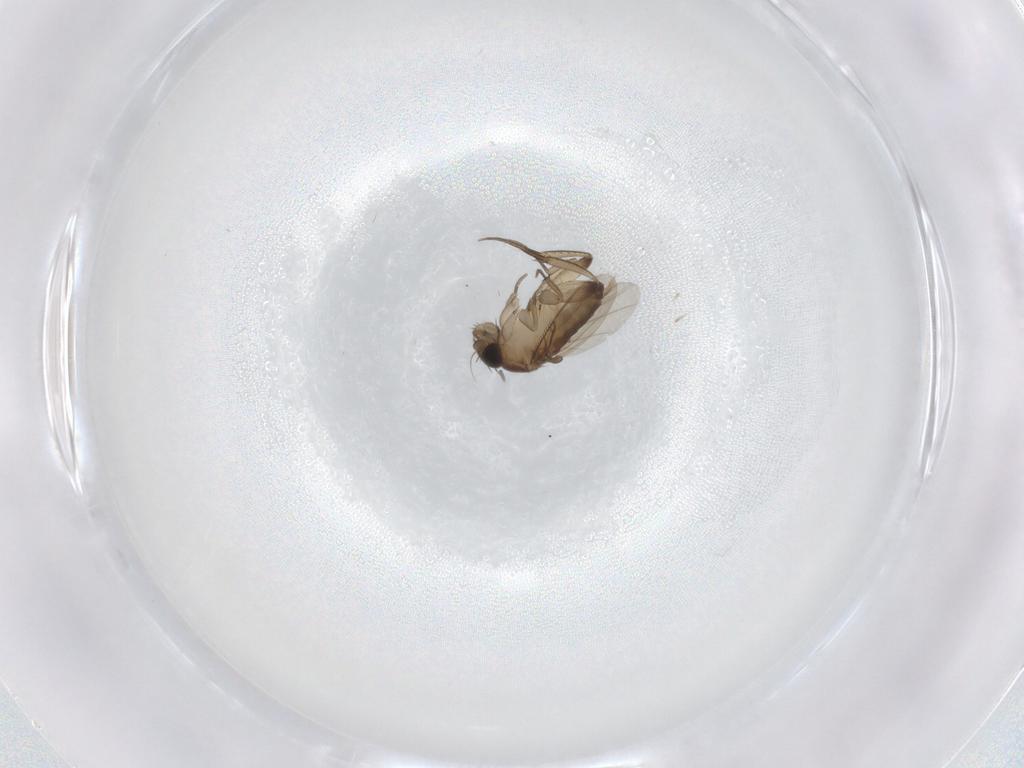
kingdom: Animalia
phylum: Arthropoda
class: Insecta
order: Diptera
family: Phoridae
